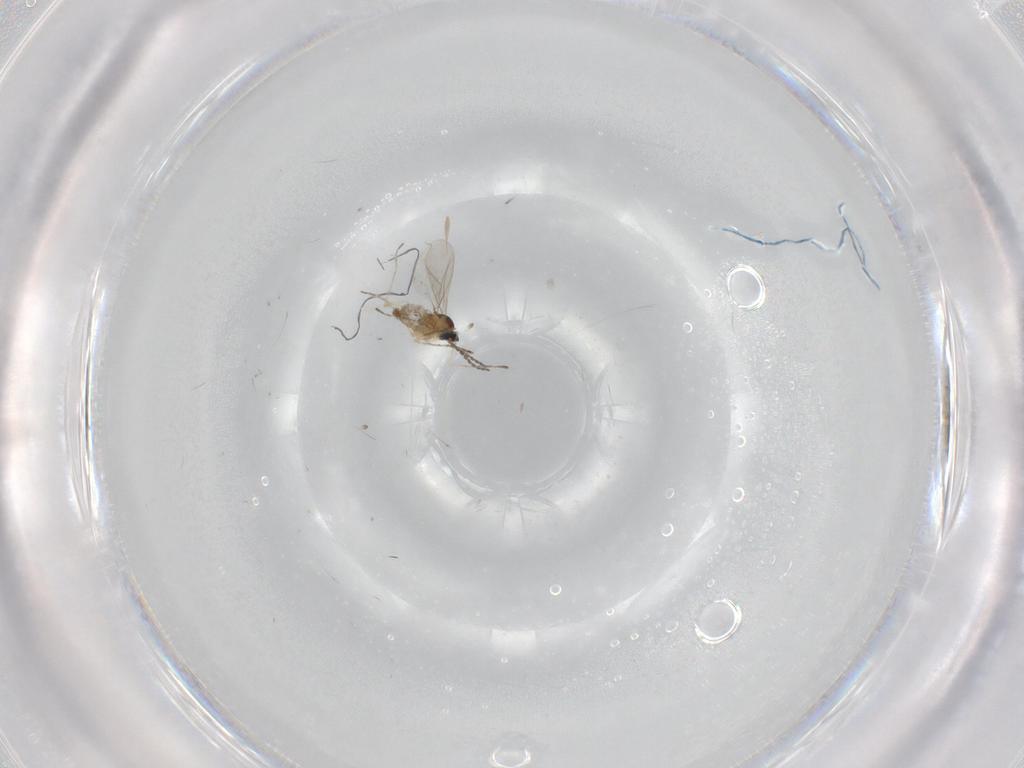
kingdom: Animalia
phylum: Arthropoda
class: Insecta
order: Diptera
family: Cecidomyiidae
